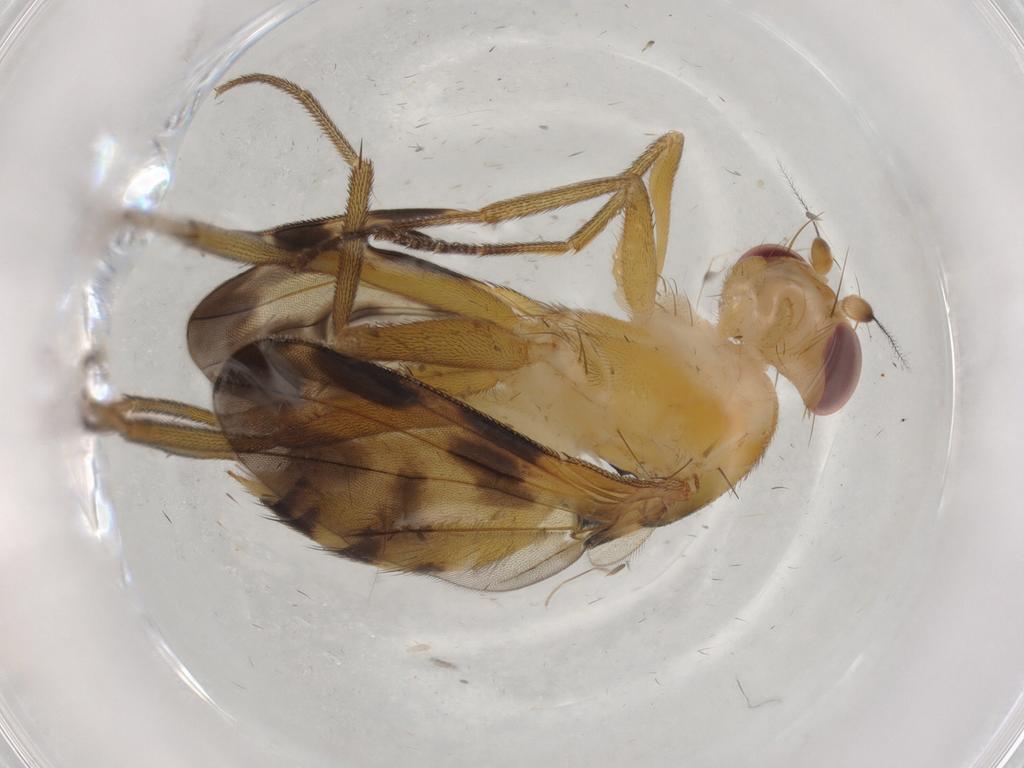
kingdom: Animalia
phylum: Arthropoda
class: Insecta
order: Diptera
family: Clusiidae
